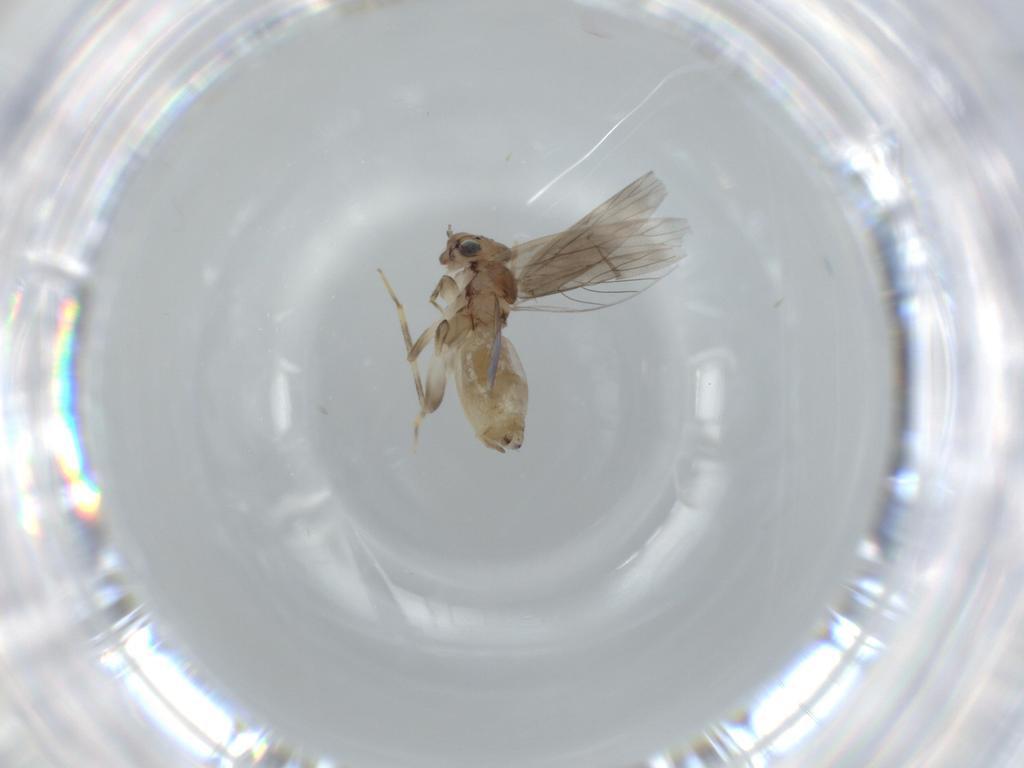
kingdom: Animalia
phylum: Arthropoda
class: Insecta
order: Psocodea
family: Lepidopsocidae
